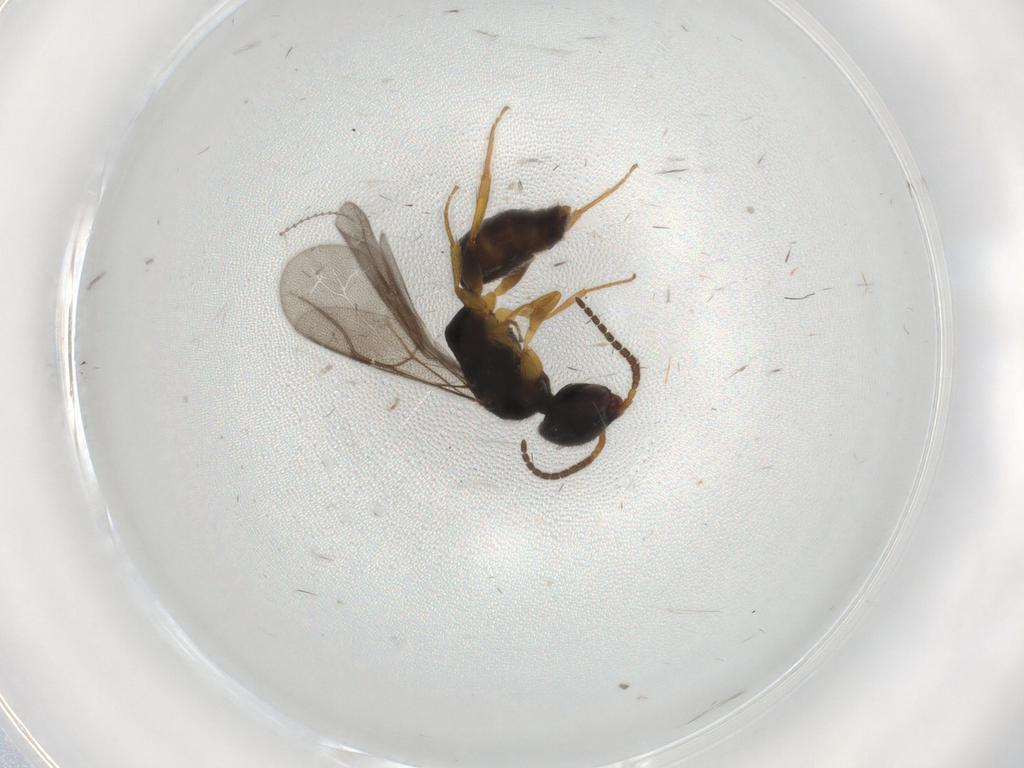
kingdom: Animalia
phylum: Arthropoda
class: Insecta
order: Hymenoptera
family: Bethylidae
